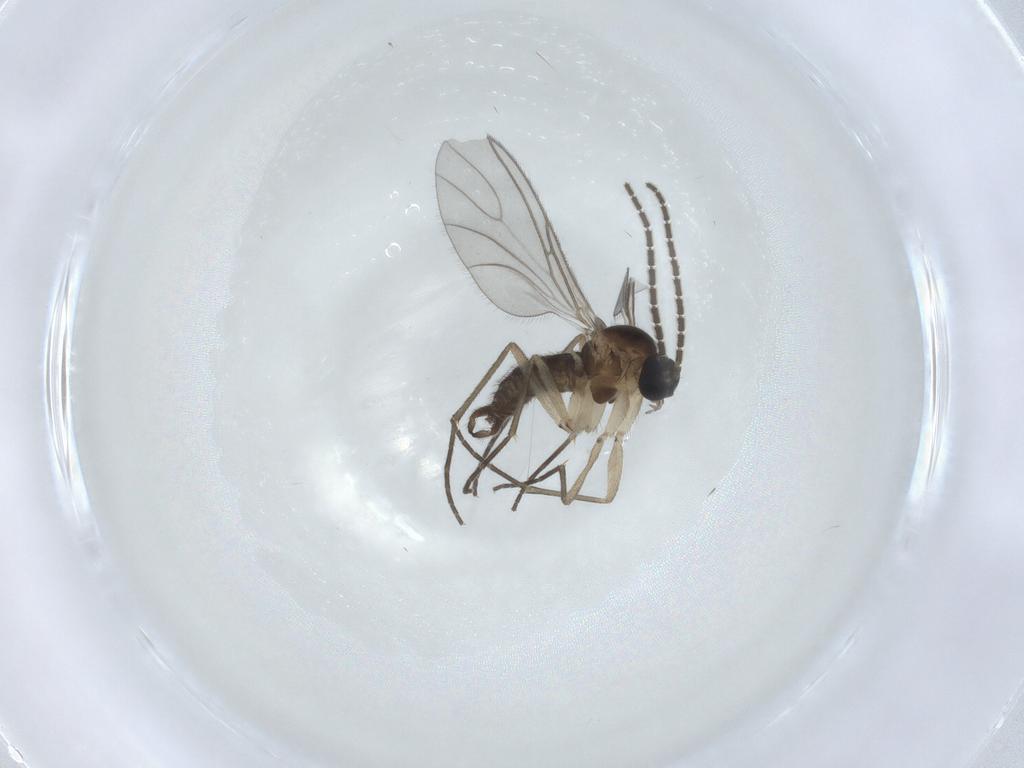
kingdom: Animalia
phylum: Arthropoda
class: Insecta
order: Diptera
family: Sciaridae
